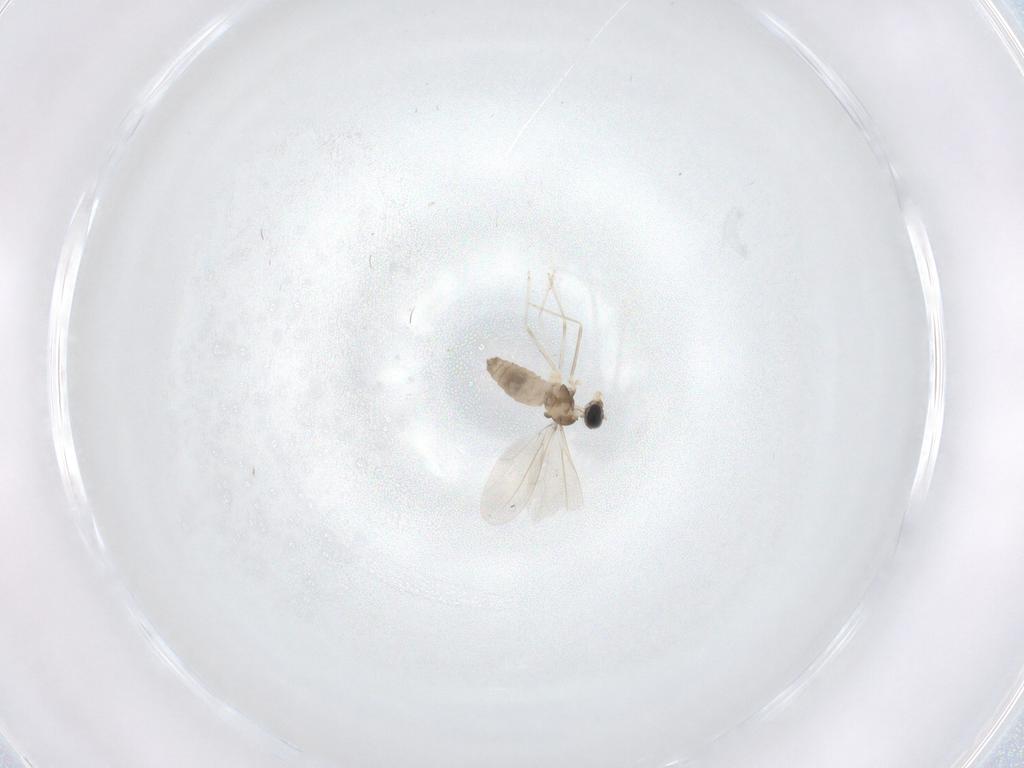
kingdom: Animalia
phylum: Arthropoda
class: Insecta
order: Diptera
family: Cecidomyiidae
